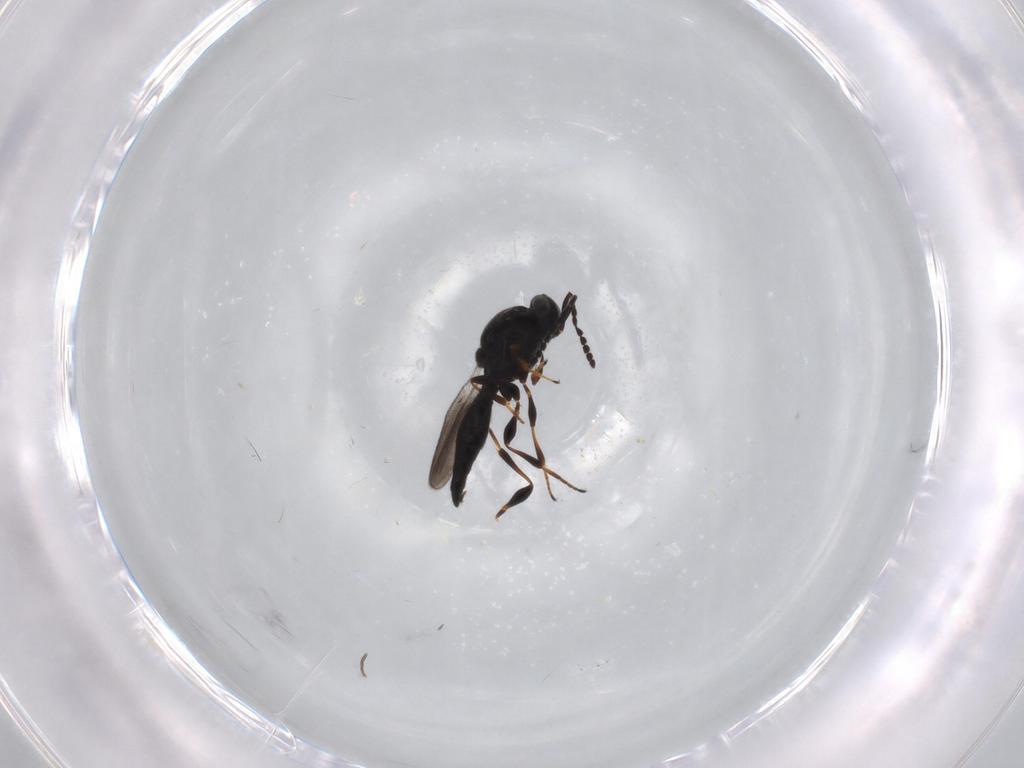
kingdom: Animalia
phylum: Arthropoda
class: Insecta
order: Hymenoptera
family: Platygastridae
